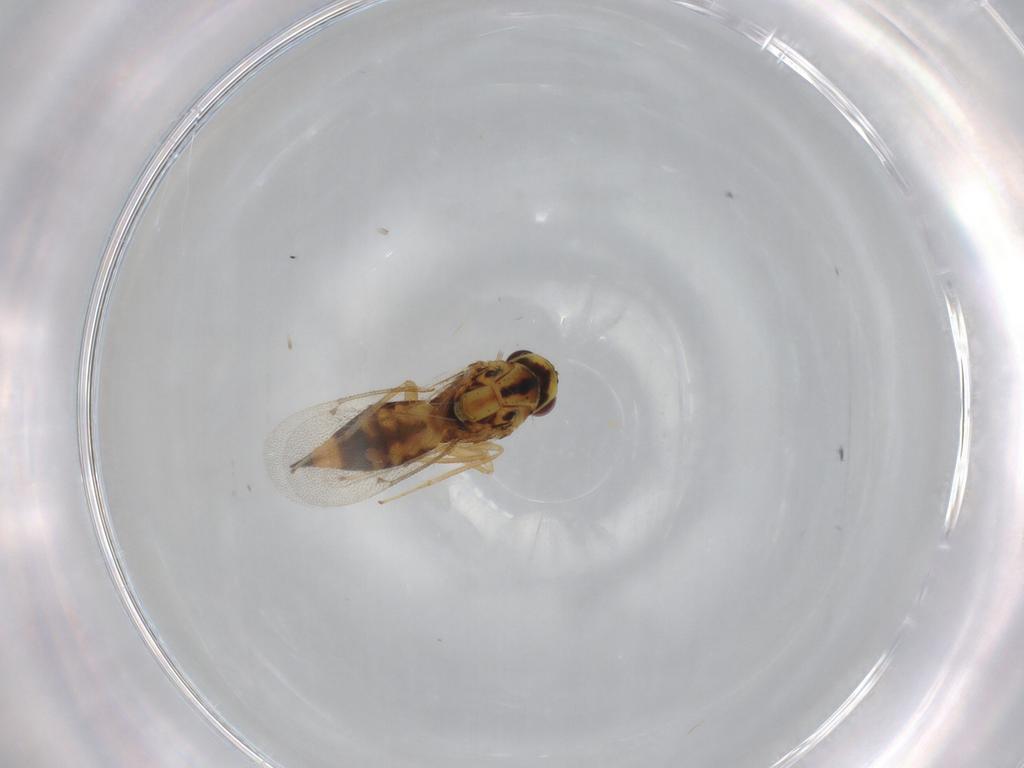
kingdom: Animalia
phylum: Arthropoda
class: Insecta
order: Hymenoptera
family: Eulophidae
